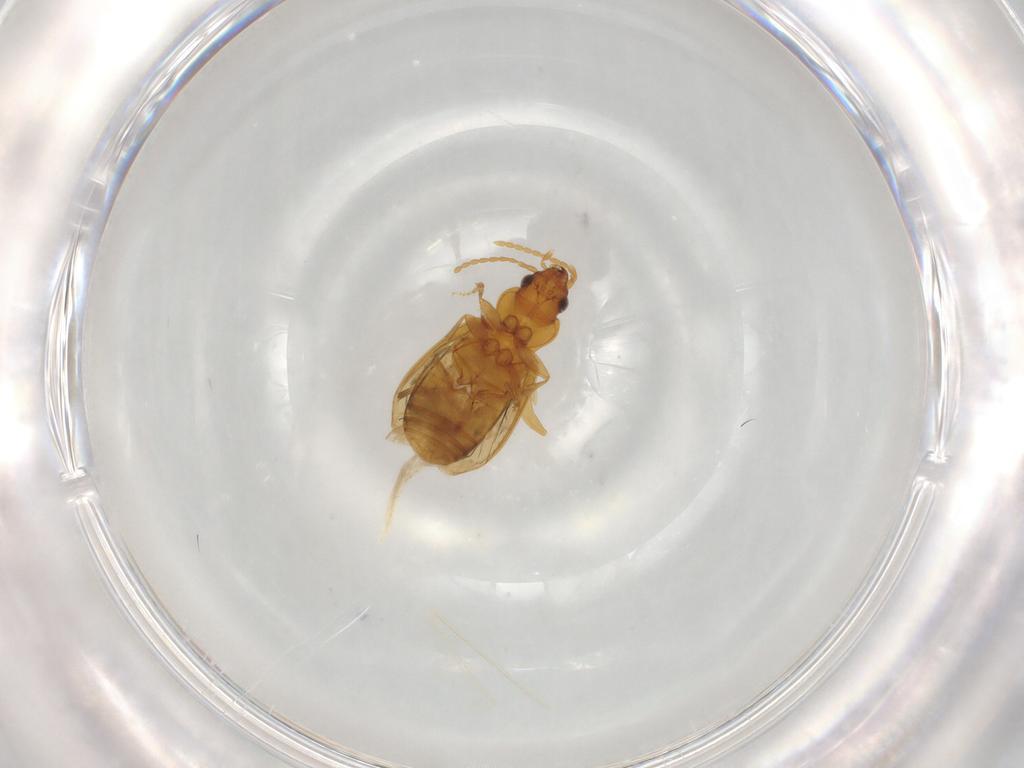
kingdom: Animalia
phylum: Arthropoda
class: Insecta
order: Coleoptera
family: Carabidae
